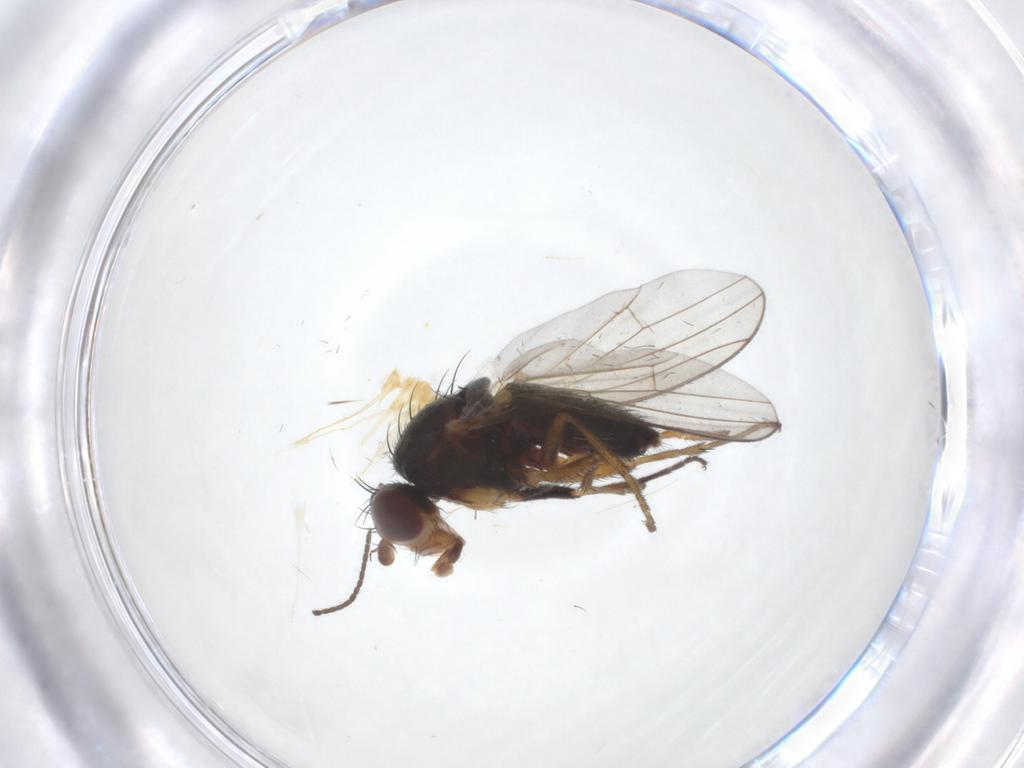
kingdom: Animalia
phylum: Arthropoda
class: Insecta
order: Diptera
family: Heleomyzidae
